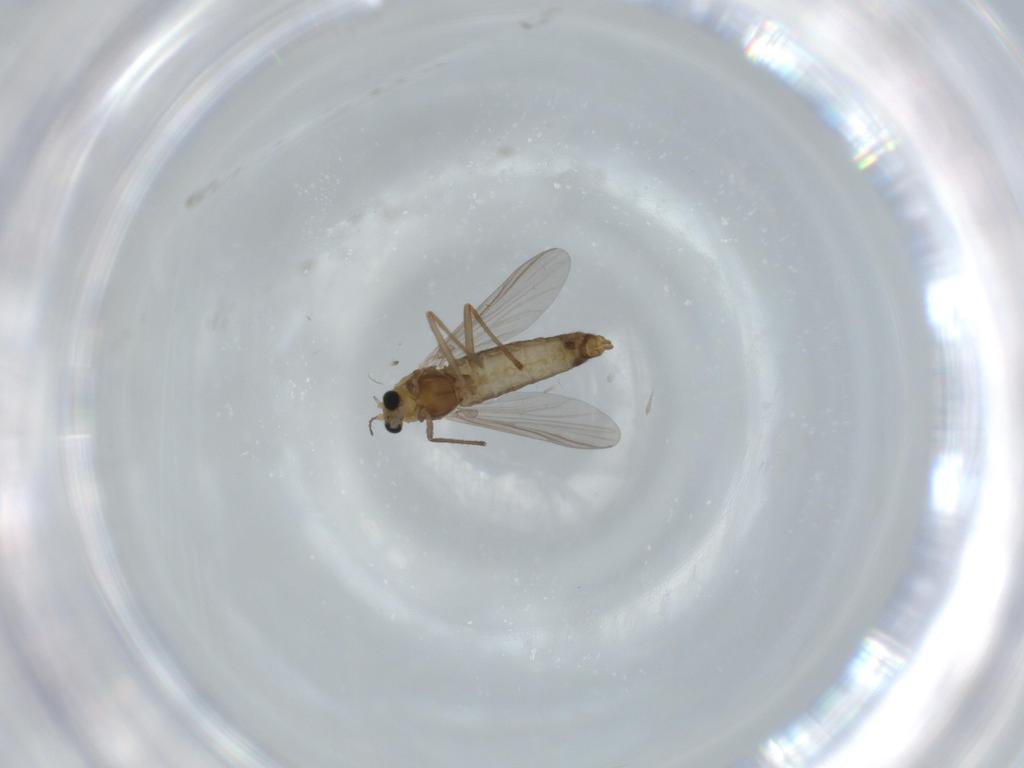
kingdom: Animalia
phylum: Arthropoda
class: Insecta
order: Diptera
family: Chironomidae
